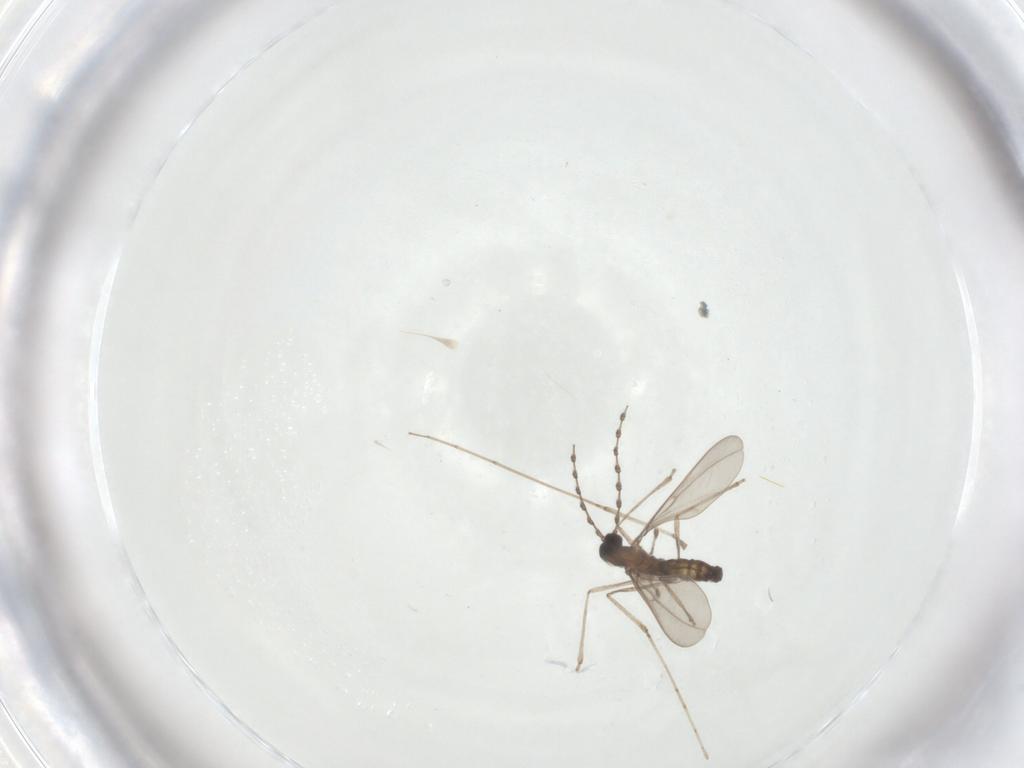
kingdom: Animalia
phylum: Arthropoda
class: Insecta
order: Diptera
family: Cecidomyiidae
